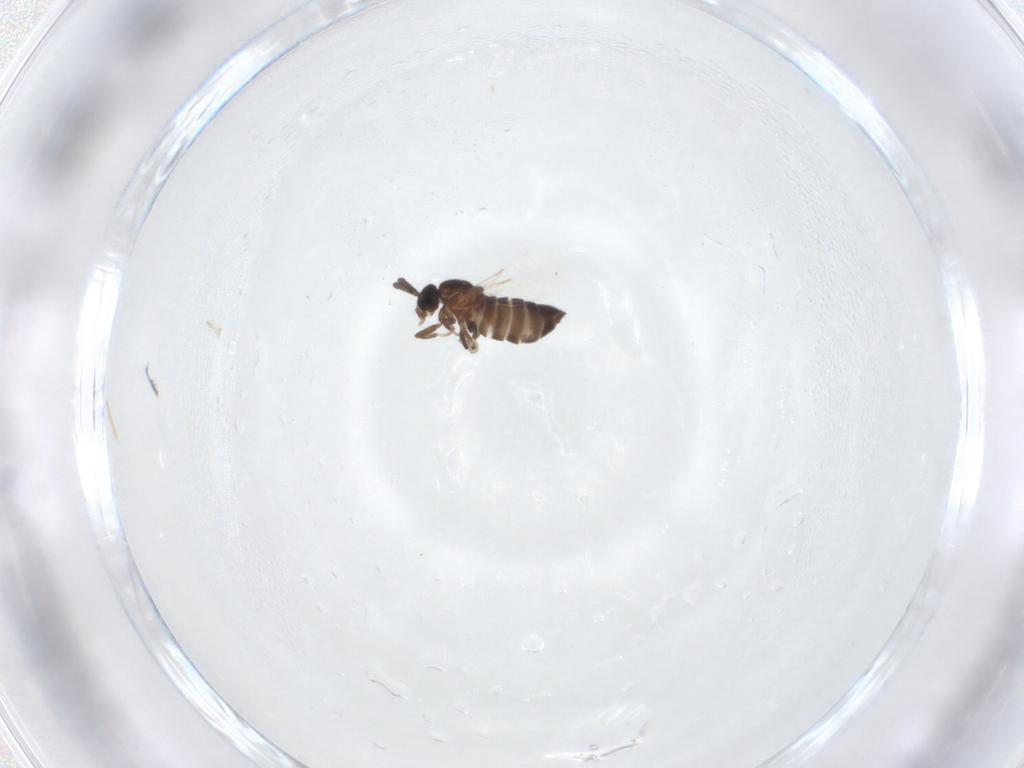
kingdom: Animalia
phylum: Arthropoda
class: Insecta
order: Diptera
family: Scatopsidae
